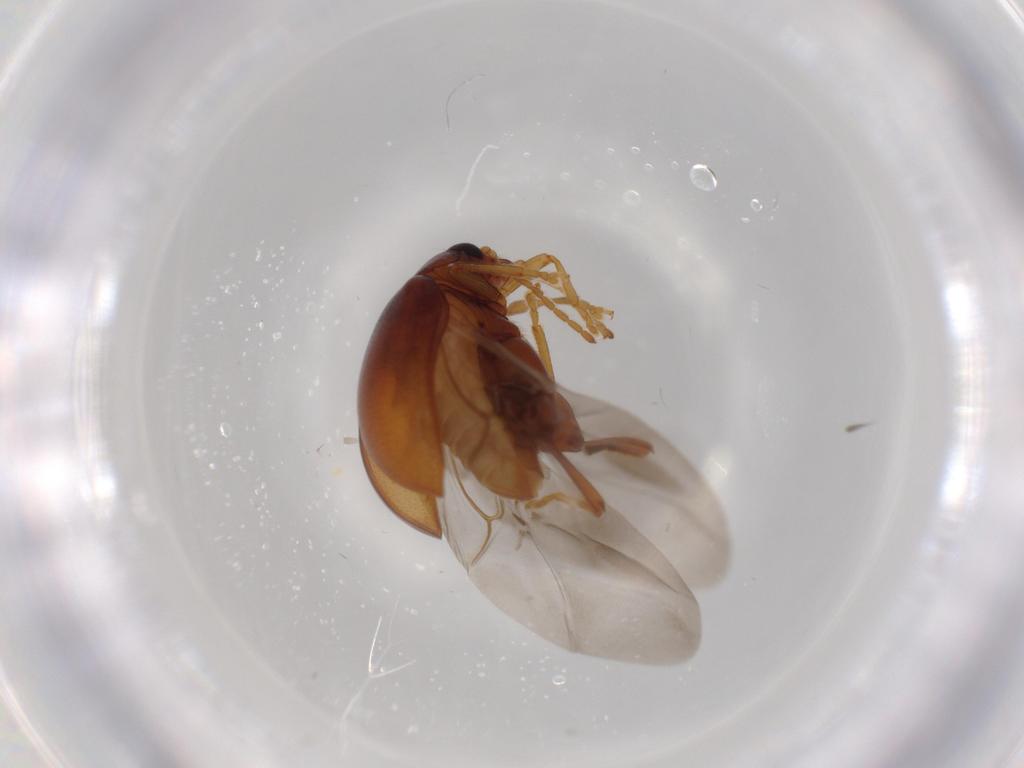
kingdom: Animalia
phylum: Arthropoda
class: Insecta
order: Coleoptera
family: Chrysomelidae
